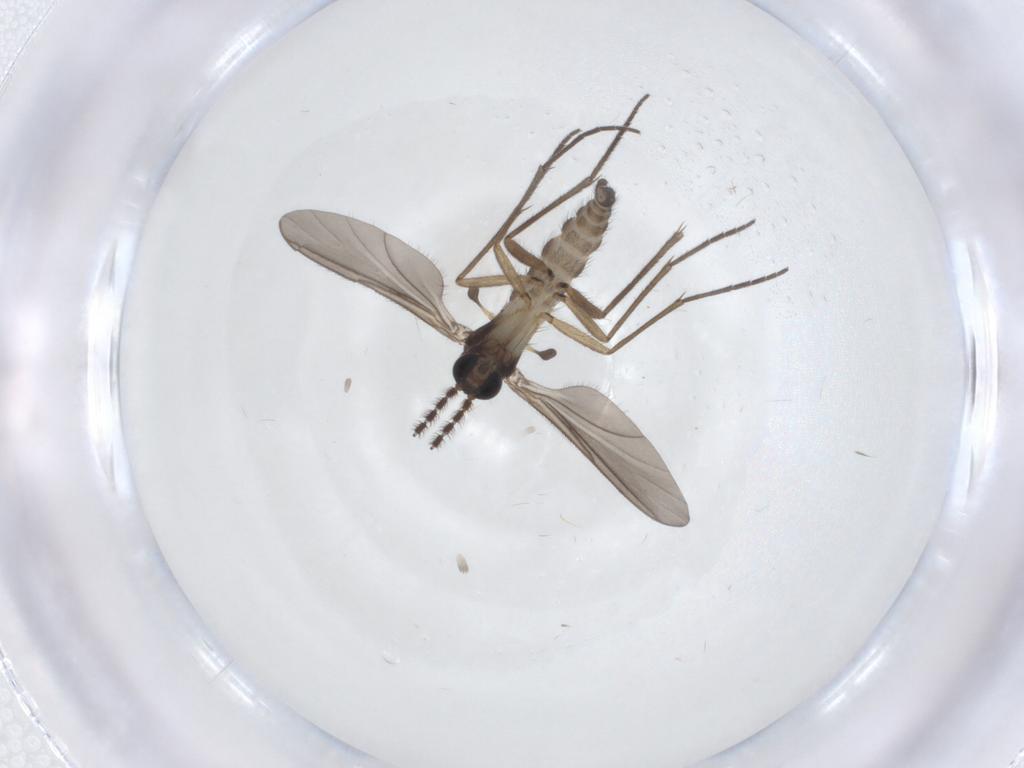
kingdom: Animalia
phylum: Arthropoda
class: Insecta
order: Diptera
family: Sciaridae
